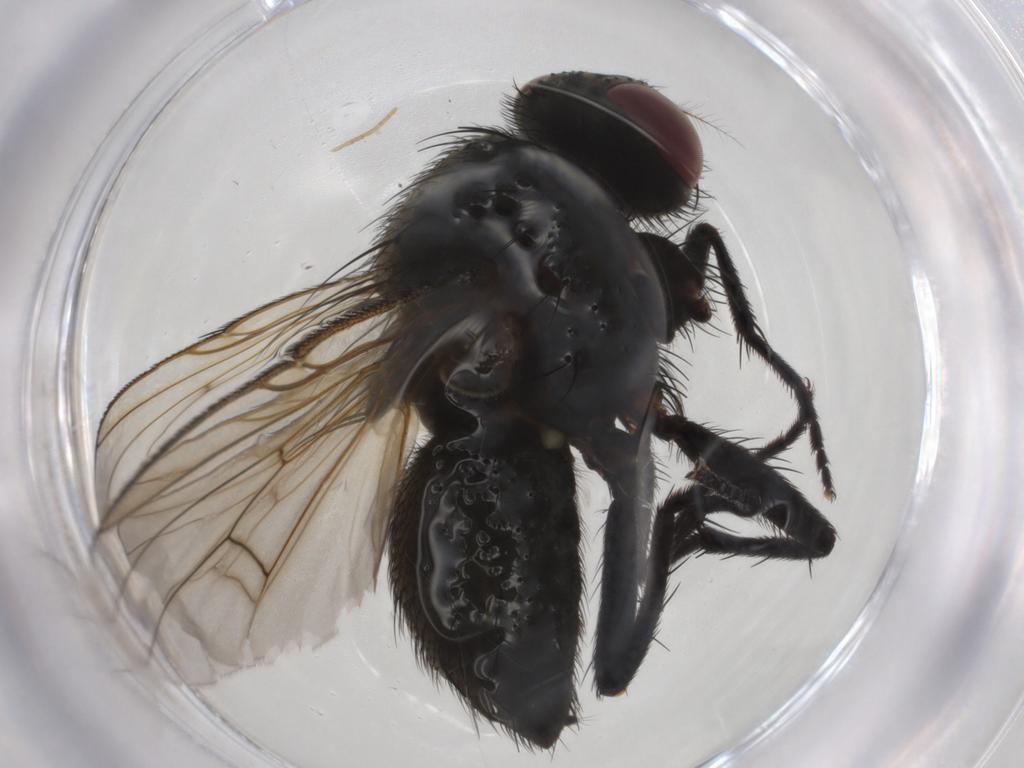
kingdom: Animalia
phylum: Arthropoda
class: Insecta
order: Diptera
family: Muscidae
